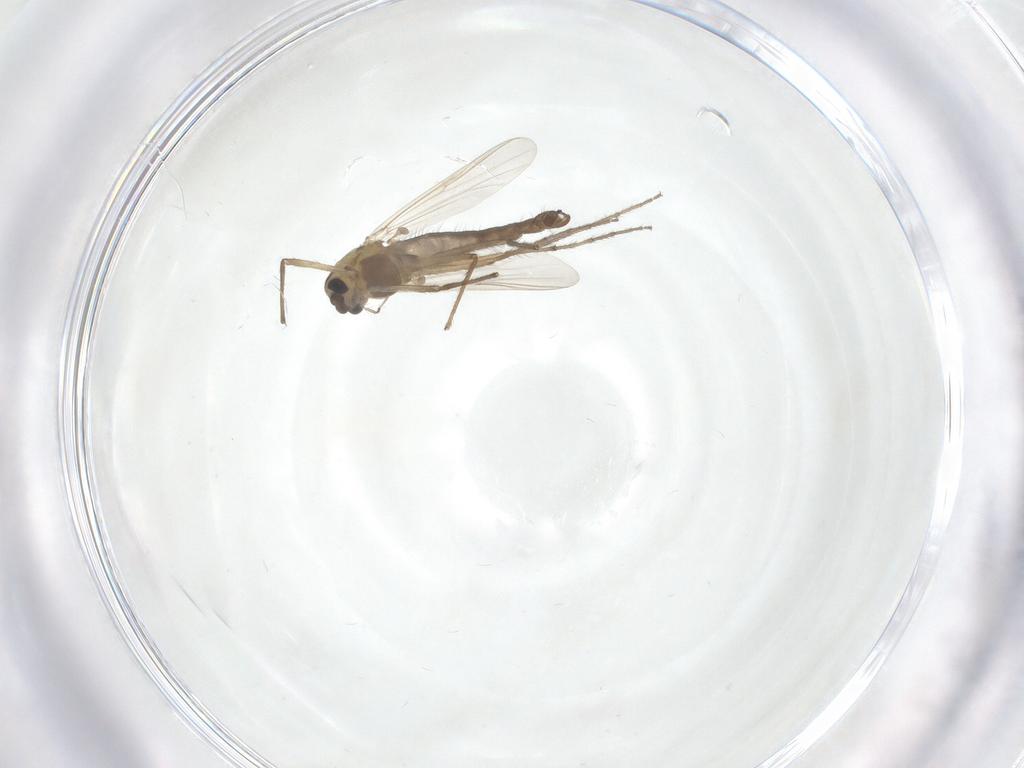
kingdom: Animalia
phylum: Arthropoda
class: Insecta
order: Diptera
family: Chironomidae
